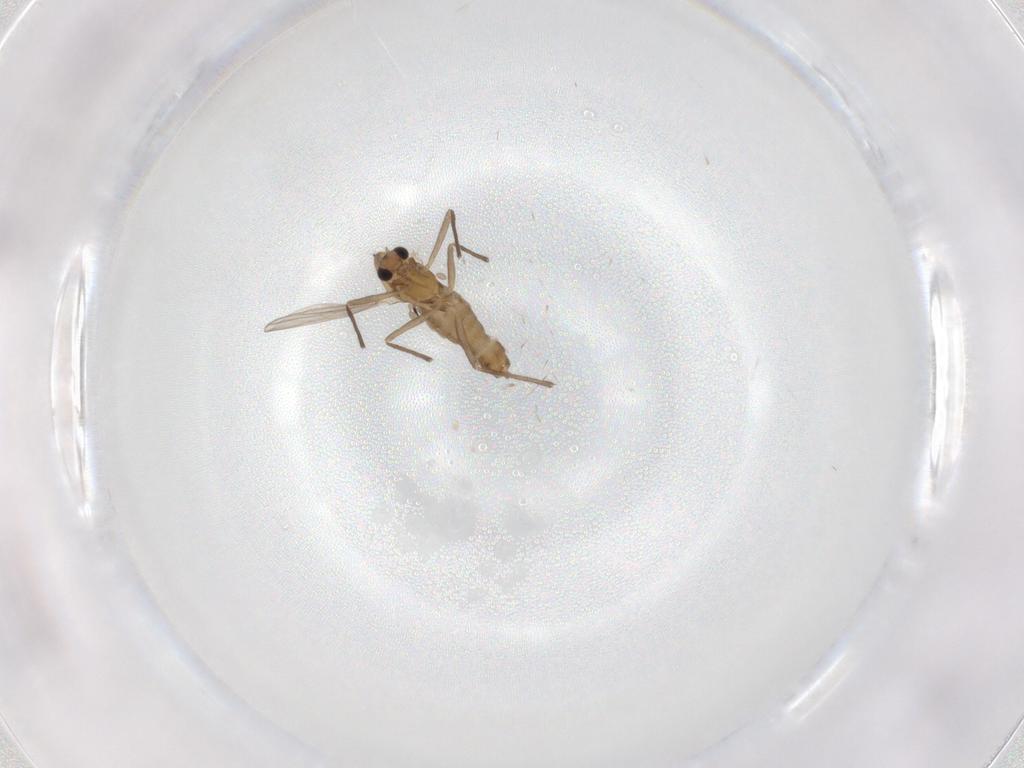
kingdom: Animalia
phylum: Arthropoda
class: Insecta
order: Diptera
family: Chironomidae
